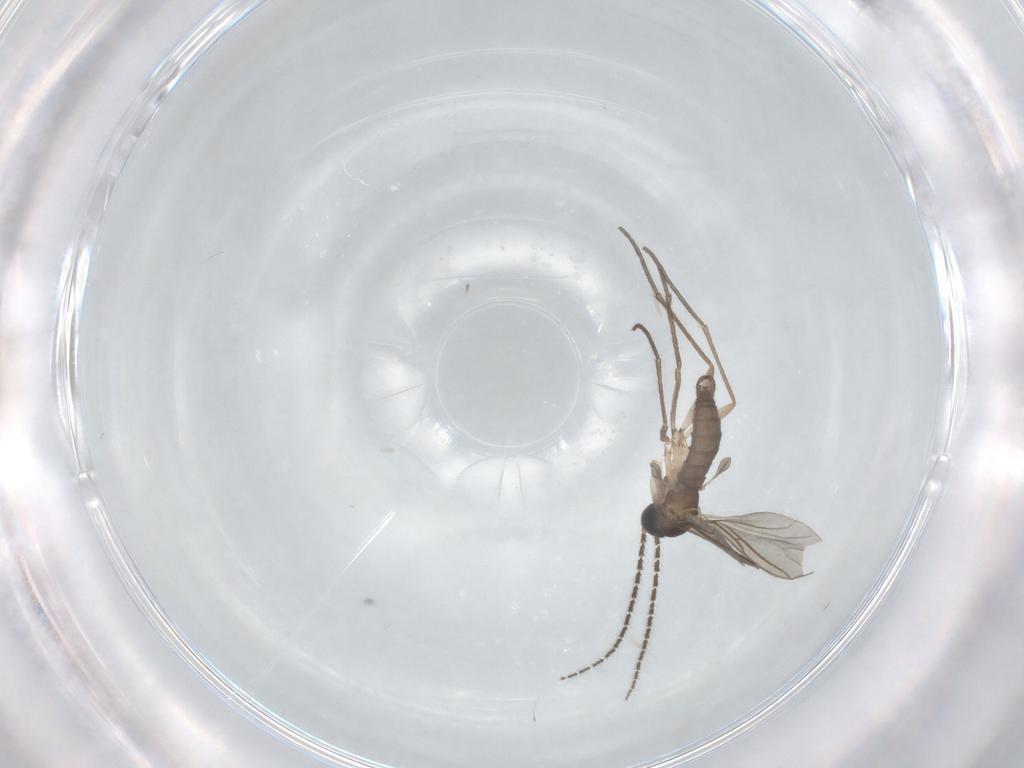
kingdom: Animalia
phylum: Arthropoda
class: Insecta
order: Diptera
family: Sciaridae
